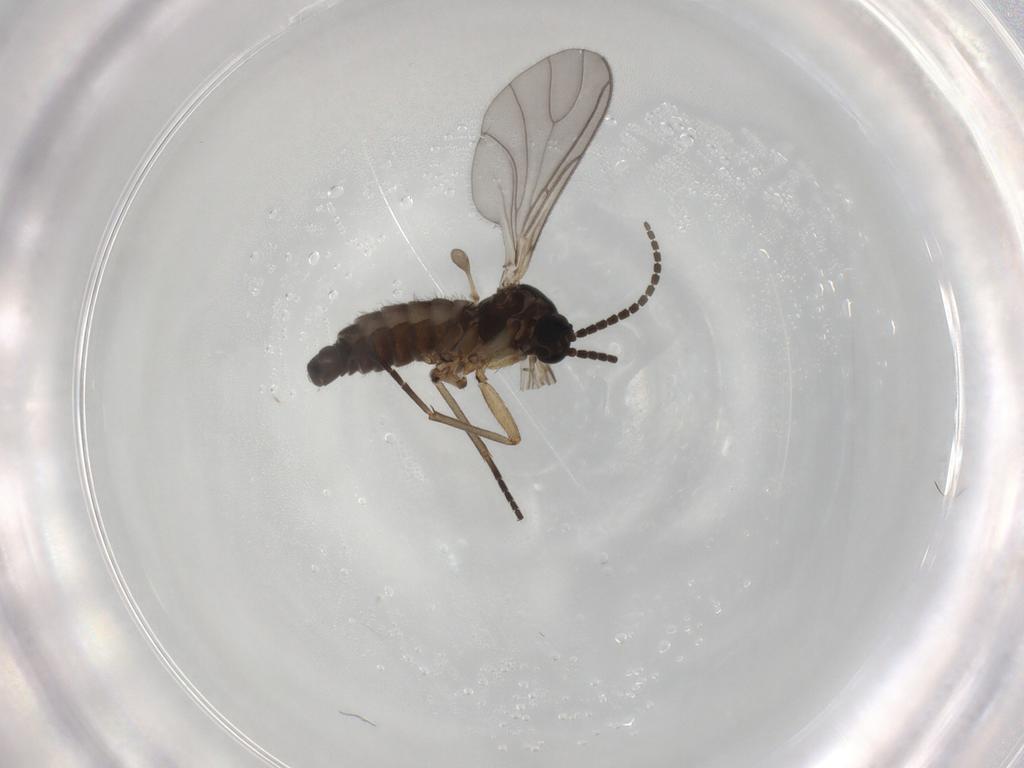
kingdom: Animalia
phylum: Arthropoda
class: Insecta
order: Diptera
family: Sciaridae
